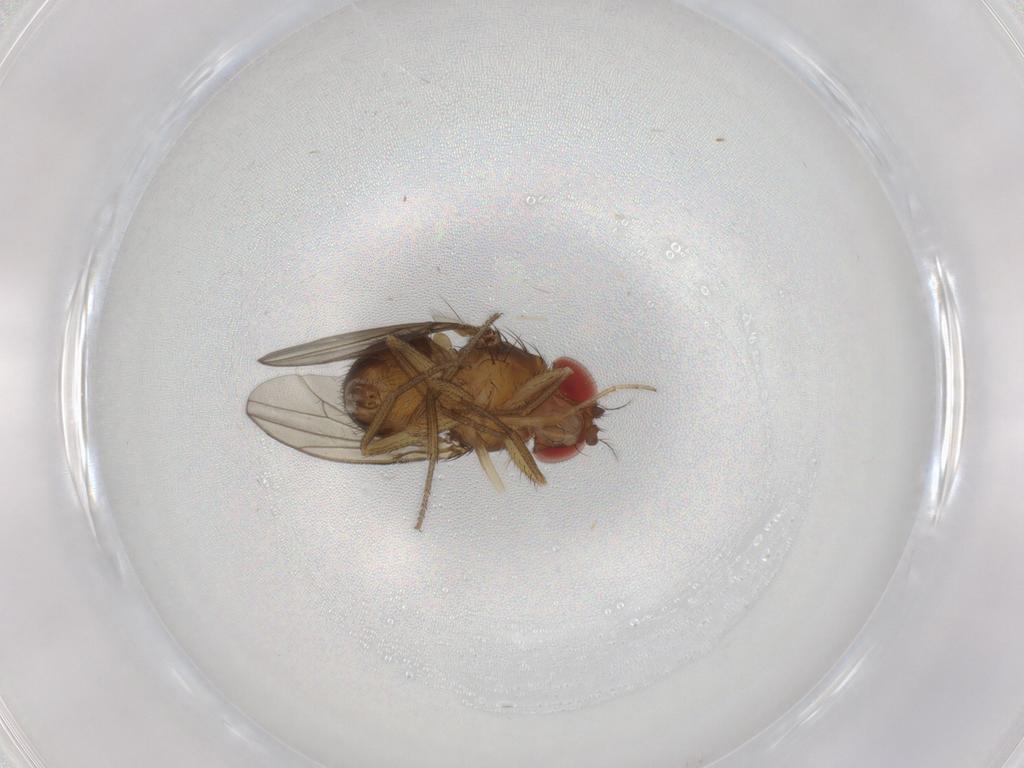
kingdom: Animalia
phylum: Arthropoda
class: Insecta
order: Diptera
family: Drosophilidae
